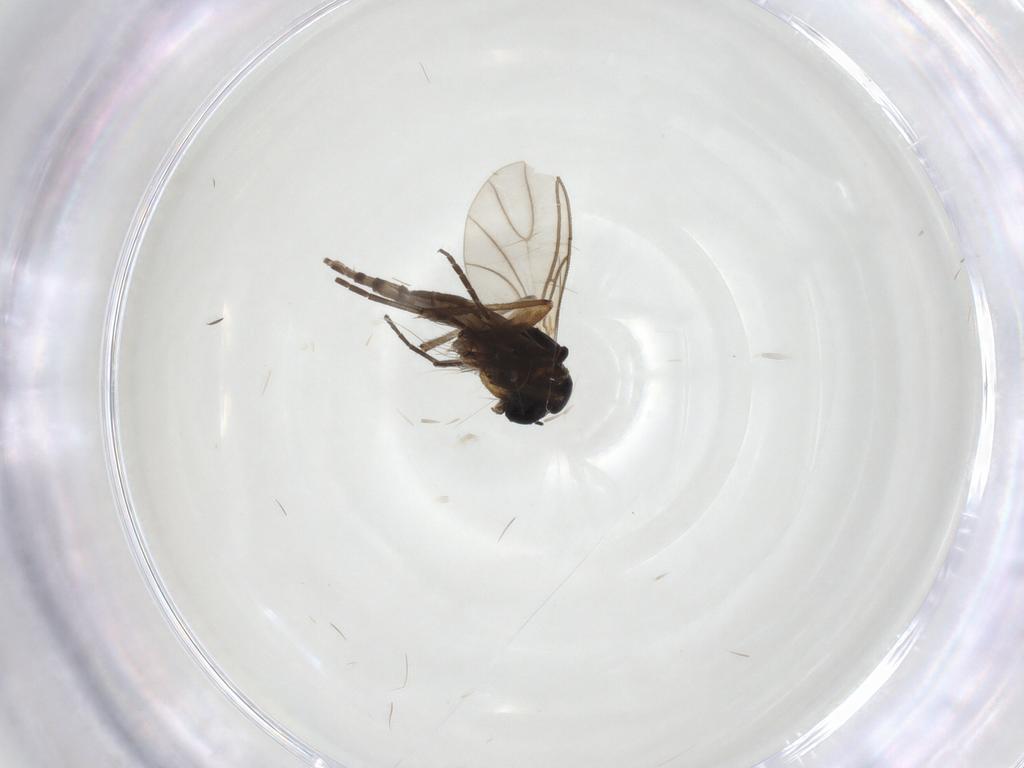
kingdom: Animalia
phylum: Arthropoda
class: Insecta
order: Diptera
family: Sciaridae
